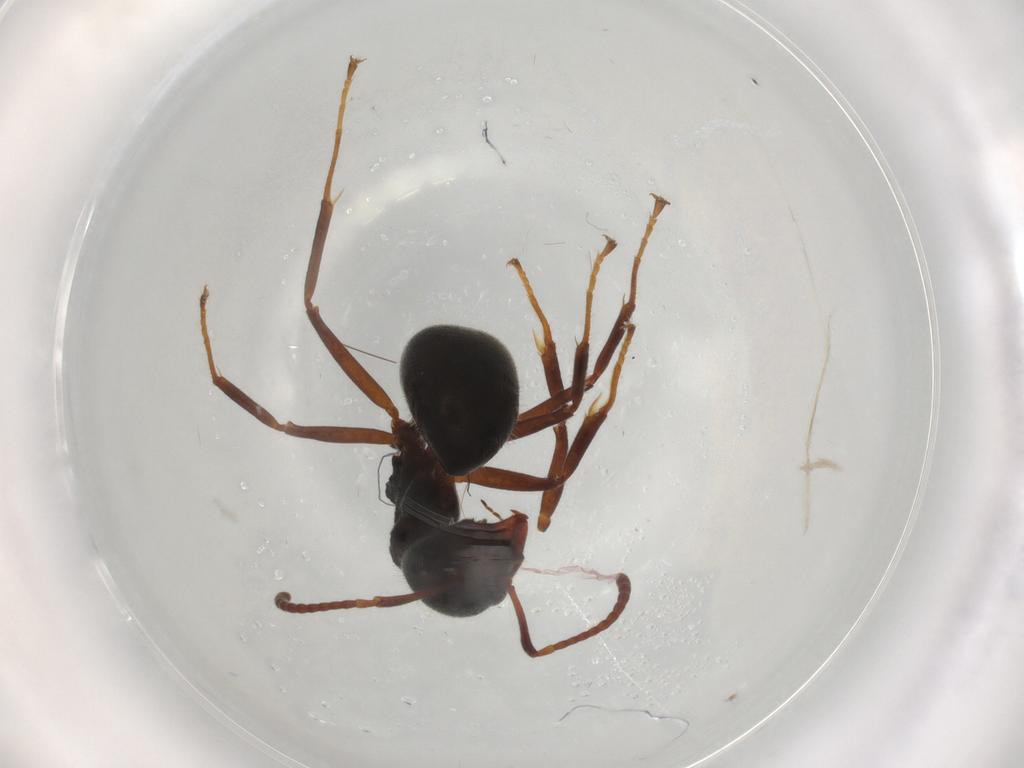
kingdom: Animalia
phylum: Arthropoda
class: Insecta
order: Hymenoptera
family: Formicidae
